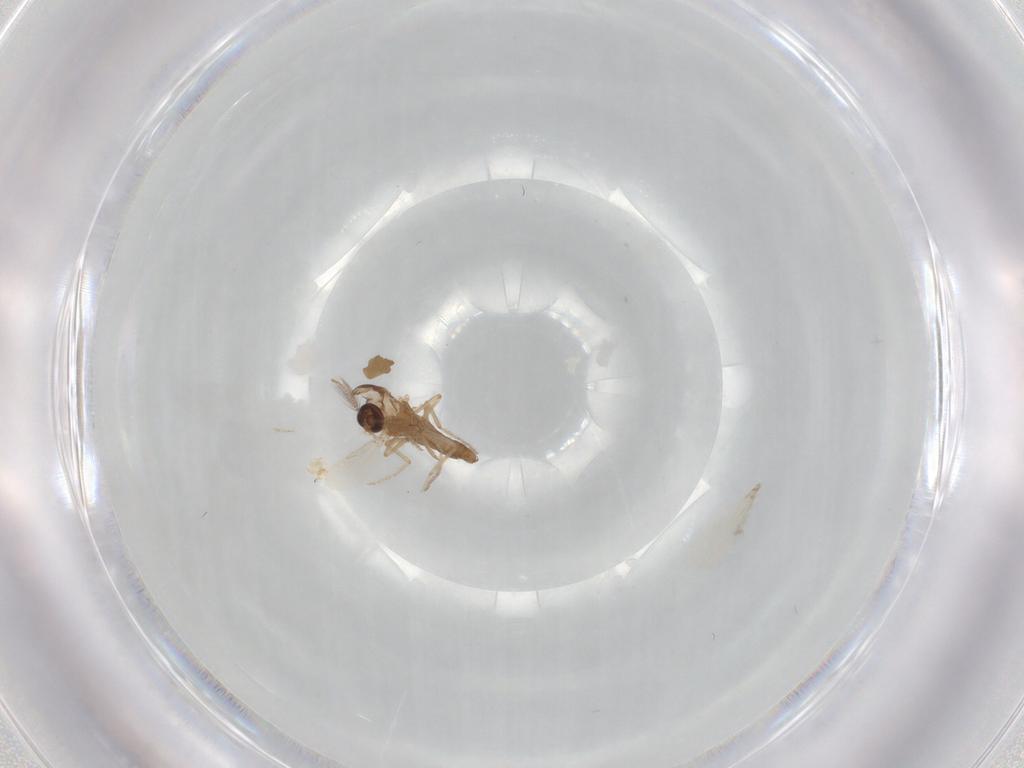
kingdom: Animalia
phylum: Arthropoda
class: Insecta
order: Diptera
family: Ceratopogonidae
